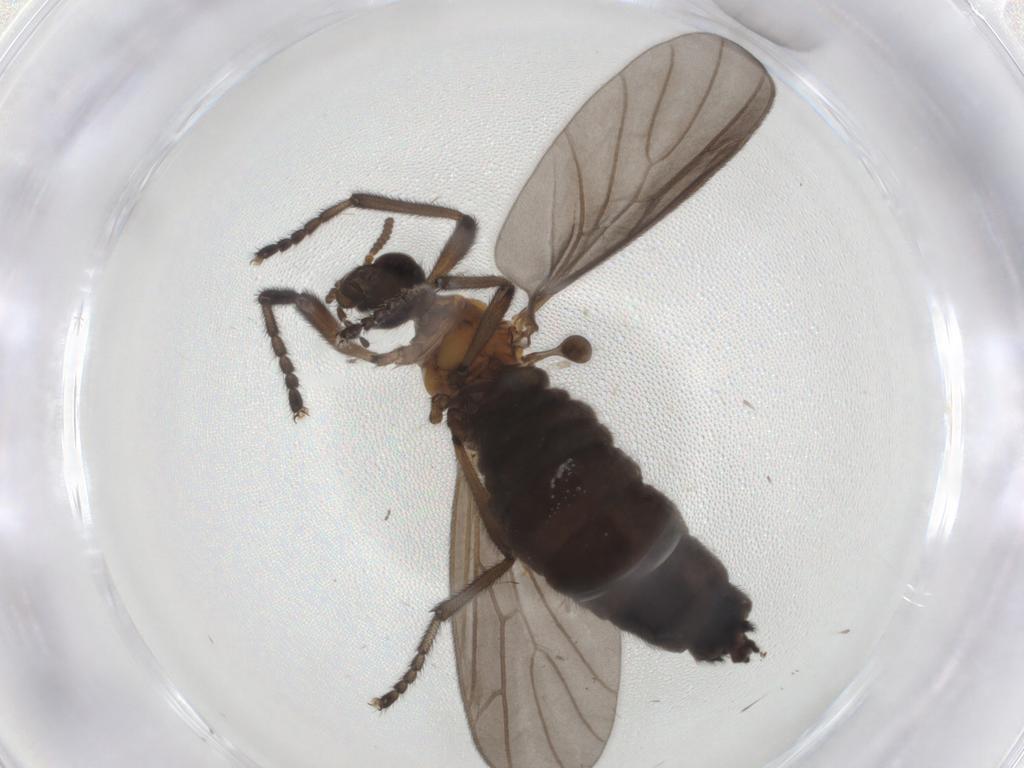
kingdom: Animalia
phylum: Arthropoda
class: Insecta
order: Diptera
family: Bibionidae
